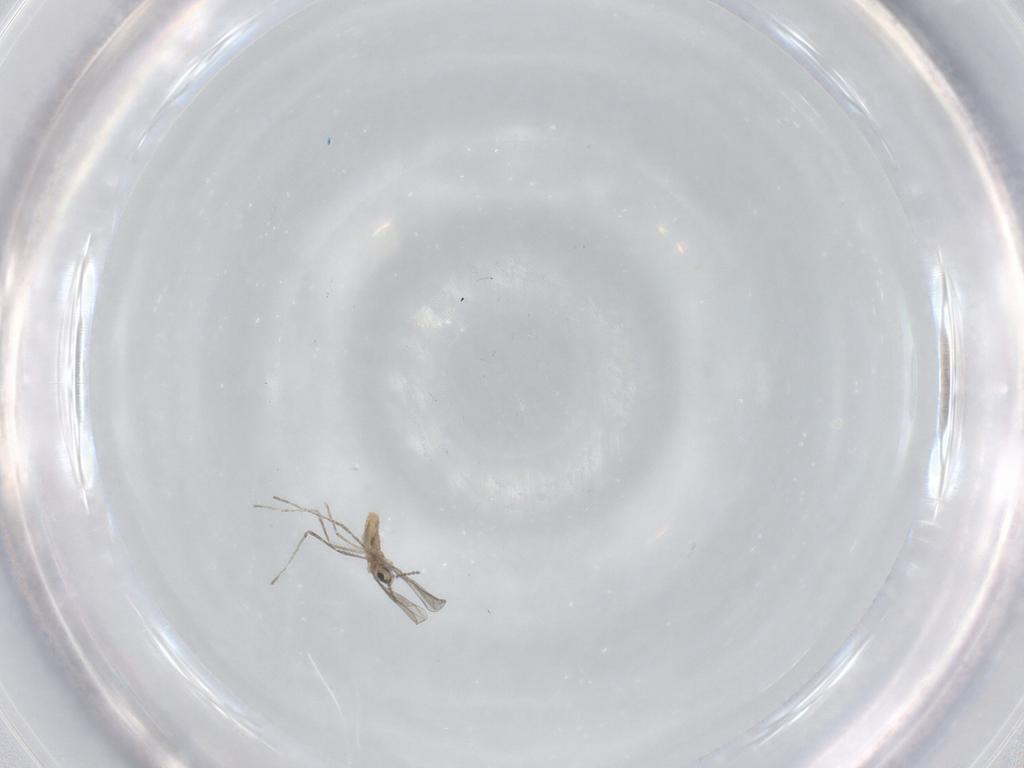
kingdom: Animalia
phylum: Arthropoda
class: Insecta
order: Diptera
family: Cecidomyiidae
